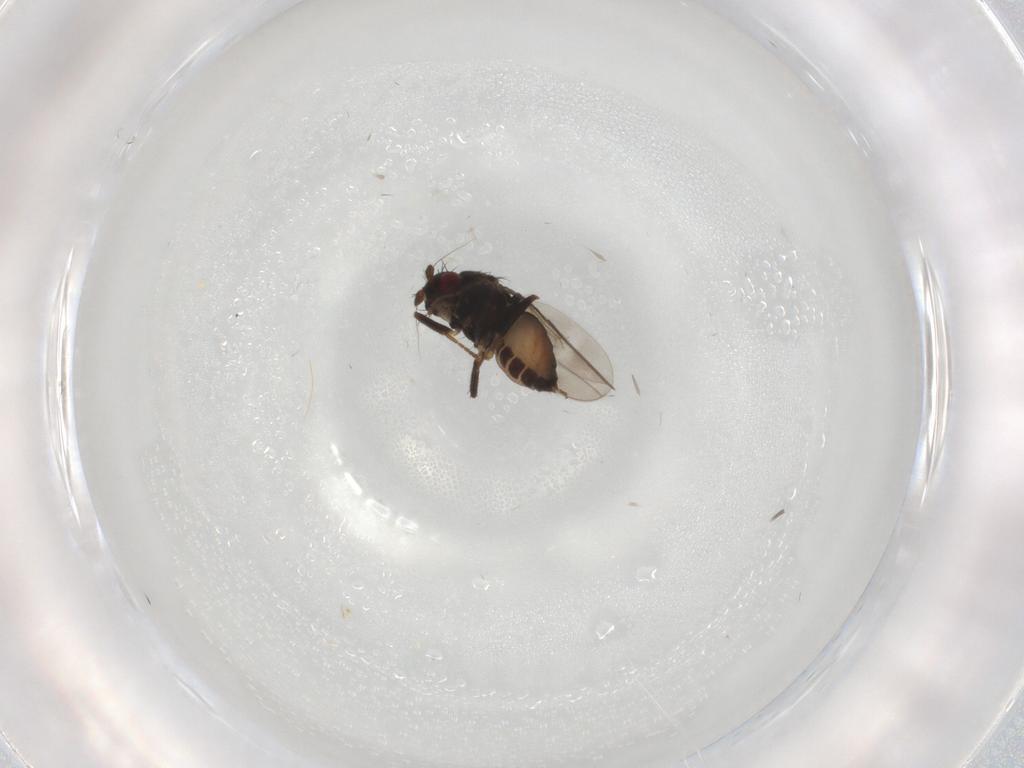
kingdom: Animalia
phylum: Arthropoda
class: Insecta
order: Diptera
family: Sphaeroceridae
